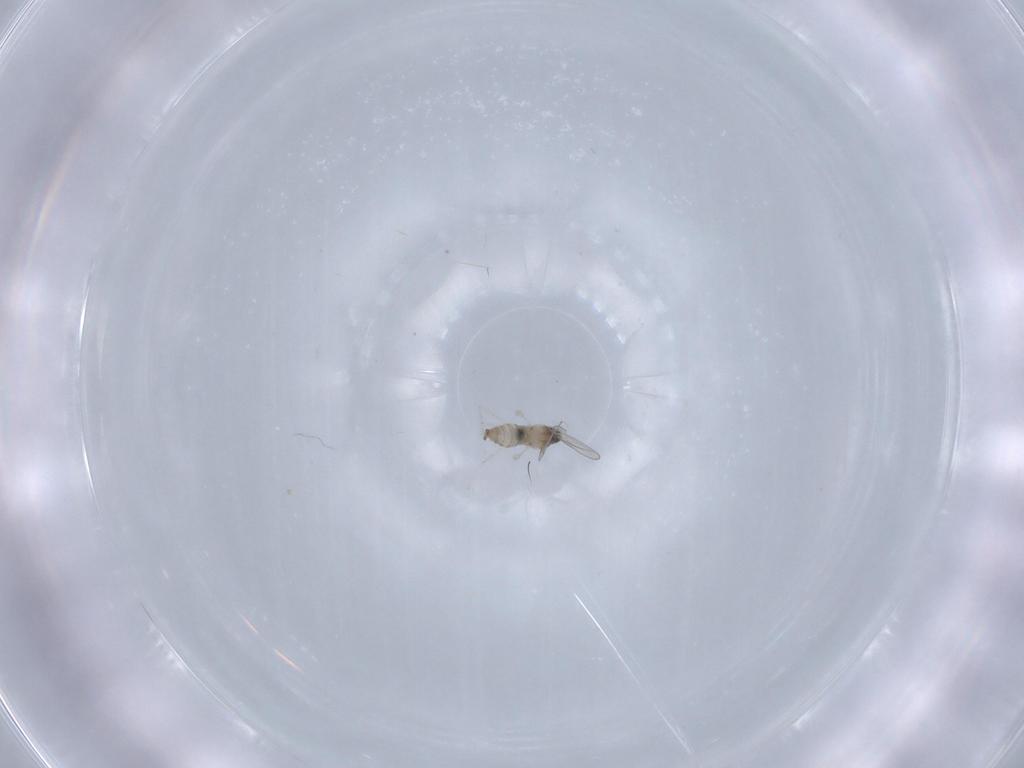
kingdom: Animalia
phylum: Arthropoda
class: Insecta
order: Diptera
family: Cecidomyiidae
